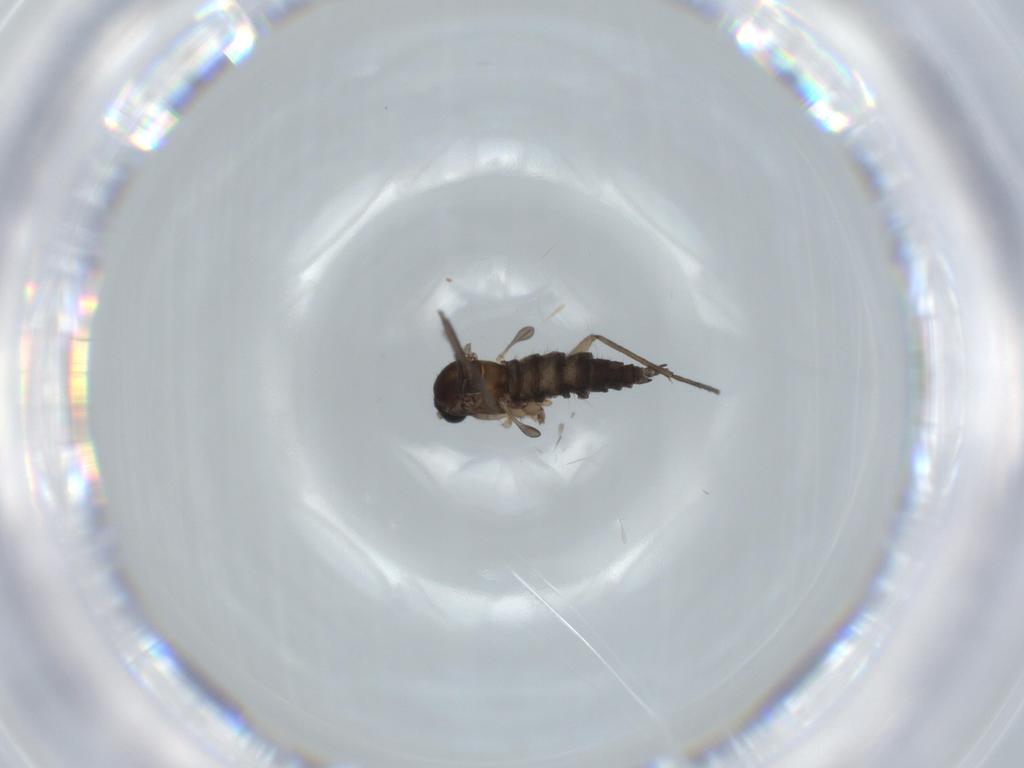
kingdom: Animalia
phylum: Arthropoda
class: Insecta
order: Diptera
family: Sciaridae
